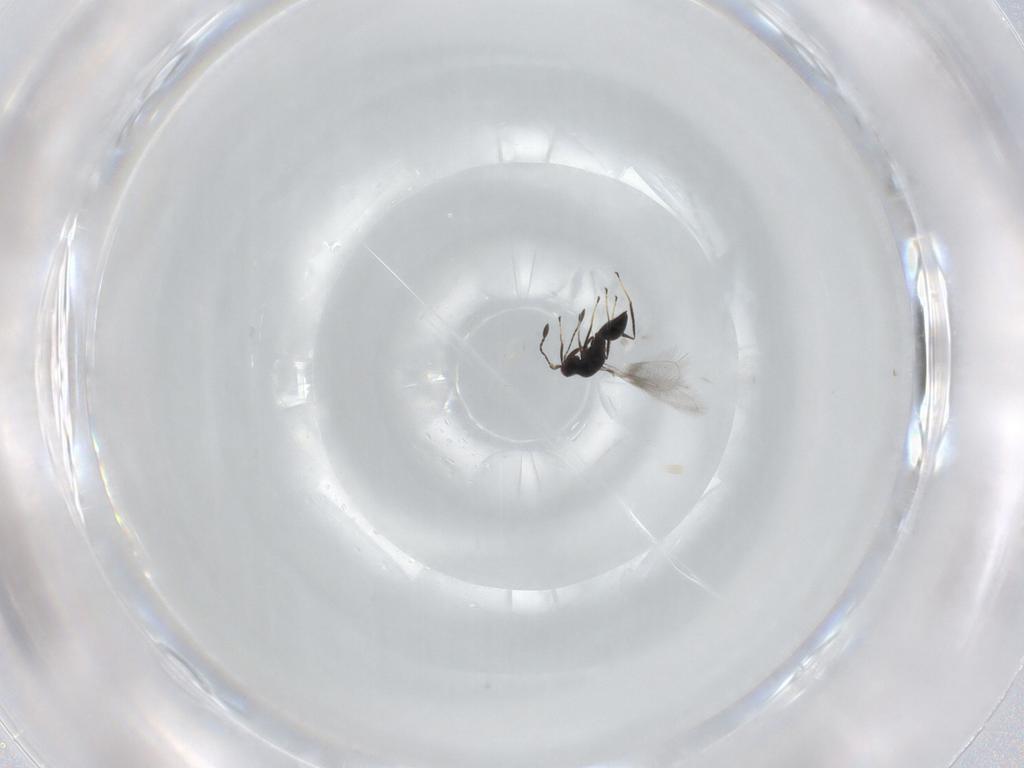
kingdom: Animalia
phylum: Arthropoda
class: Insecta
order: Hymenoptera
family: Mymaridae
